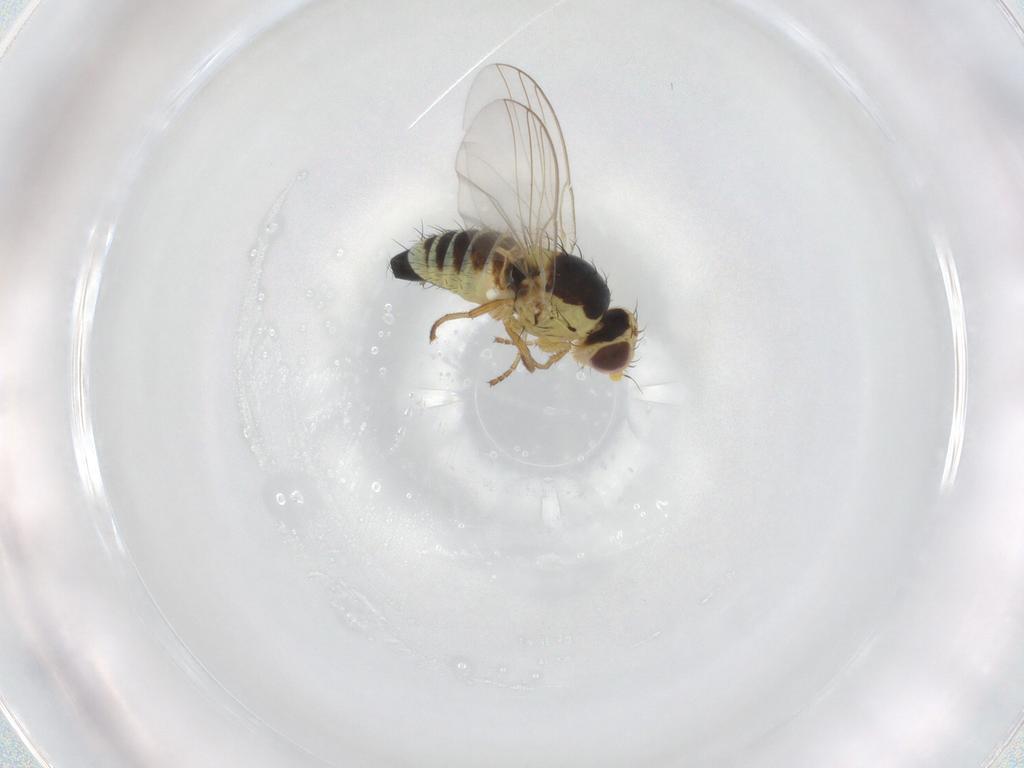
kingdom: Animalia
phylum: Arthropoda
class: Insecta
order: Diptera
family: Agromyzidae
